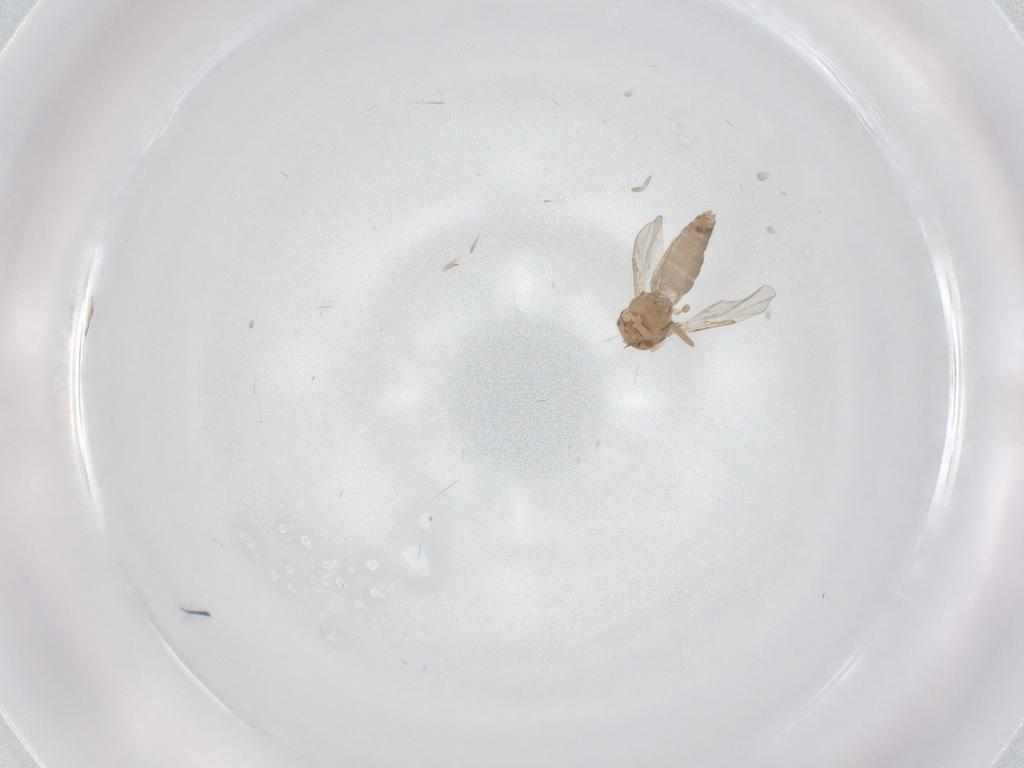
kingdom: Animalia
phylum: Arthropoda
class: Insecta
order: Diptera
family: Ceratopogonidae
